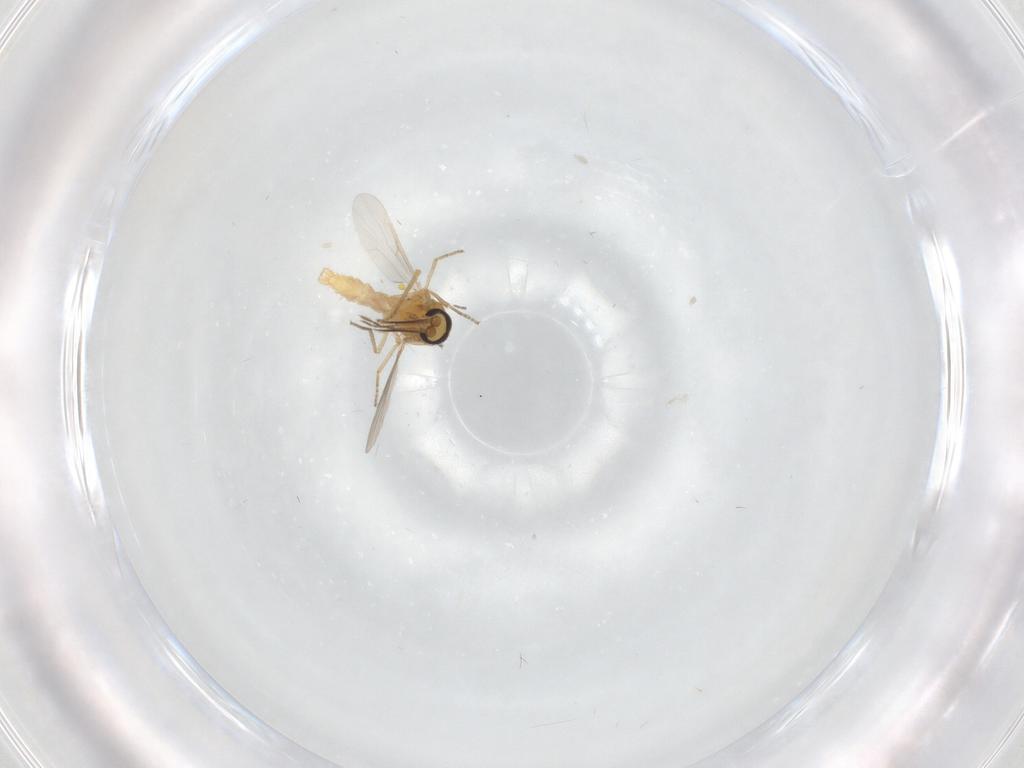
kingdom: Animalia
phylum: Arthropoda
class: Insecta
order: Diptera
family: Ceratopogonidae
